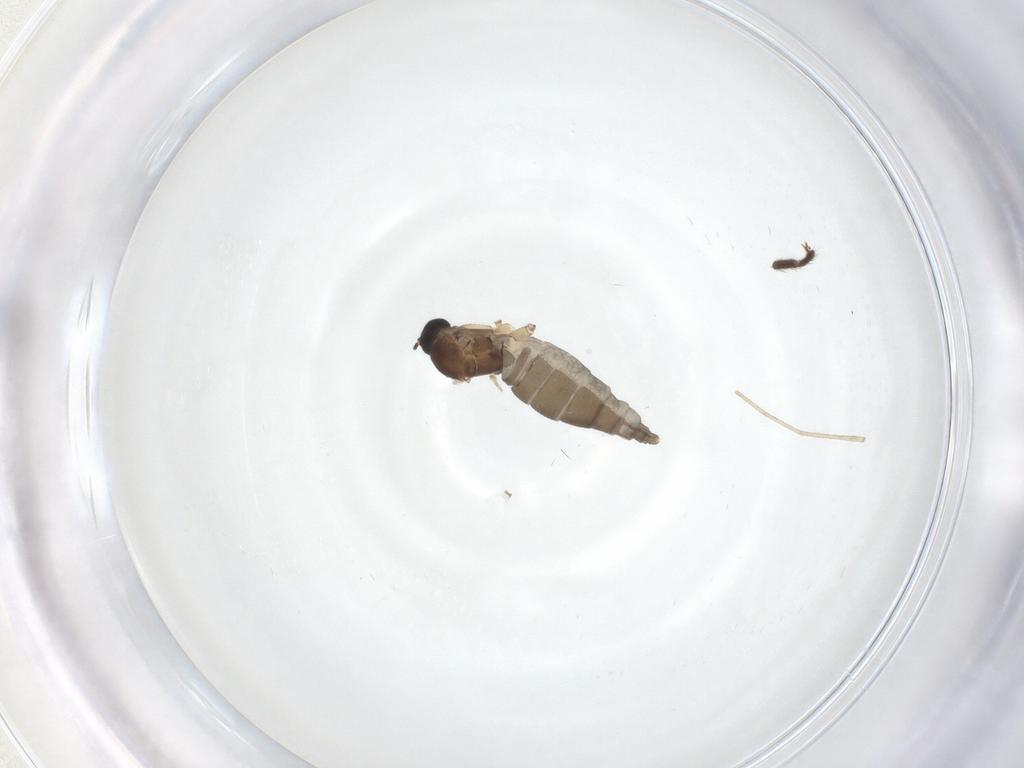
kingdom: Animalia
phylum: Arthropoda
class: Insecta
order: Diptera
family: Sciaridae
